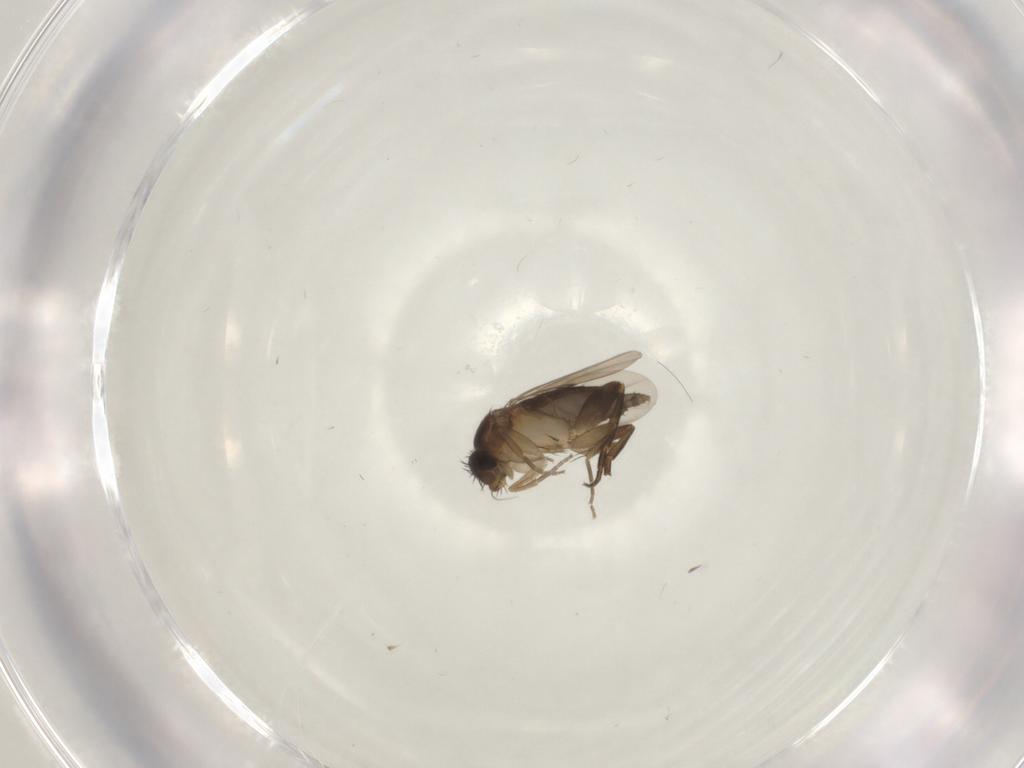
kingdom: Animalia
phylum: Arthropoda
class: Insecta
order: Diptera
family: Phoridae
